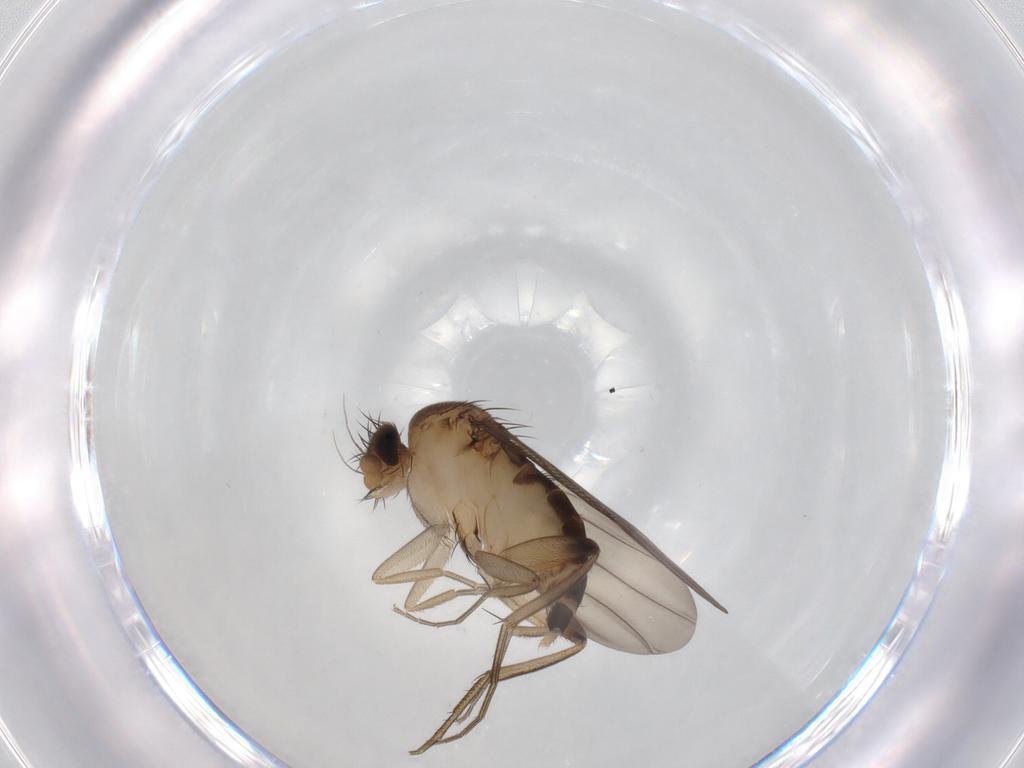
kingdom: Animalia
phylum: Arthropoda
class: Insecta
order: Diptera
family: Phoridae
